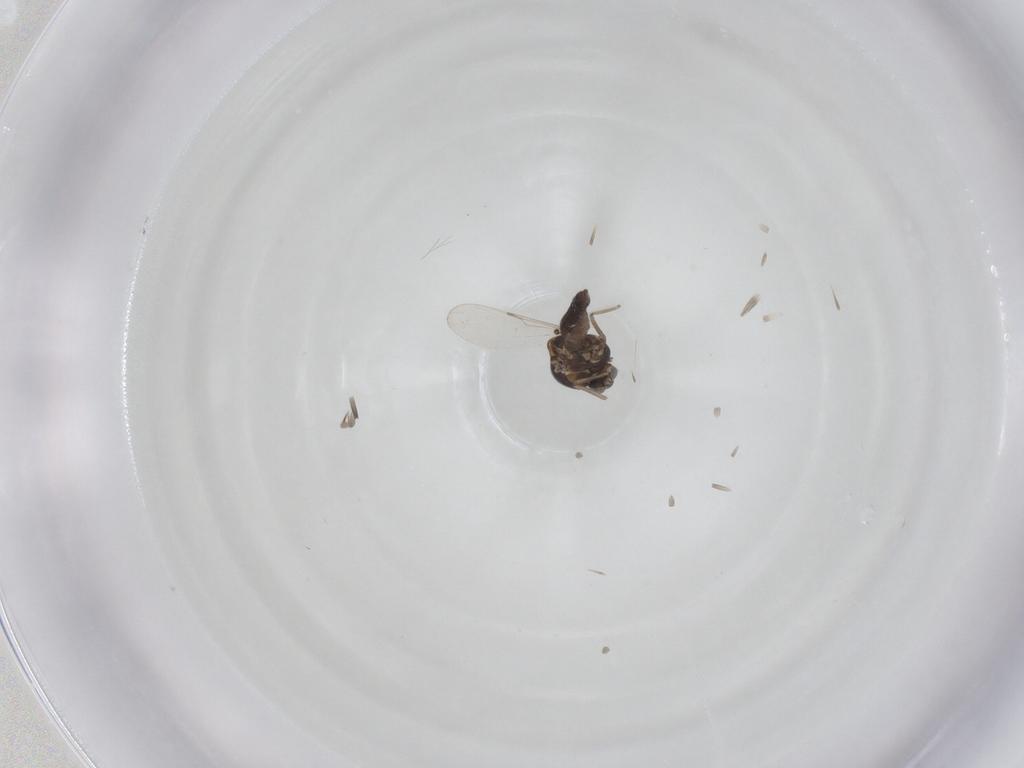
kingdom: Animalia
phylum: Arthropoda
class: Insecta
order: Diptera
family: Ceratopogonidae
